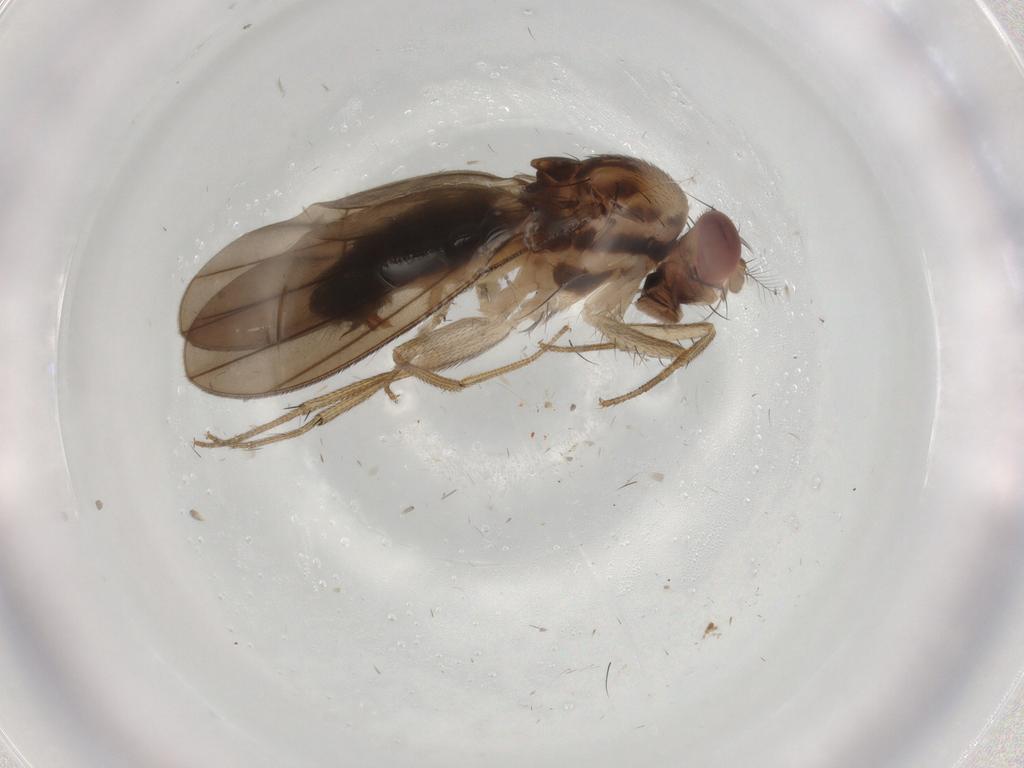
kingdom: Animalia
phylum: Arthropoda
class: Insecta
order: Diptera
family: Drosophilidae
